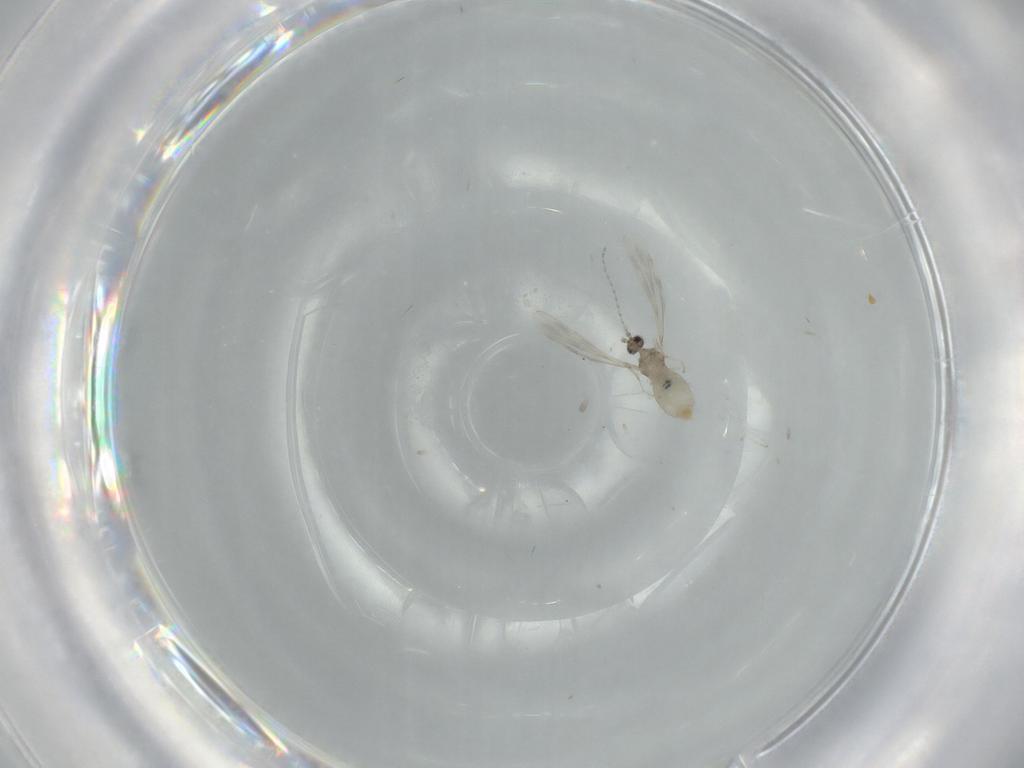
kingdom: Animalia
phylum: Arthropoda
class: Insecta
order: Diptera
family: Cecidomyiidae
